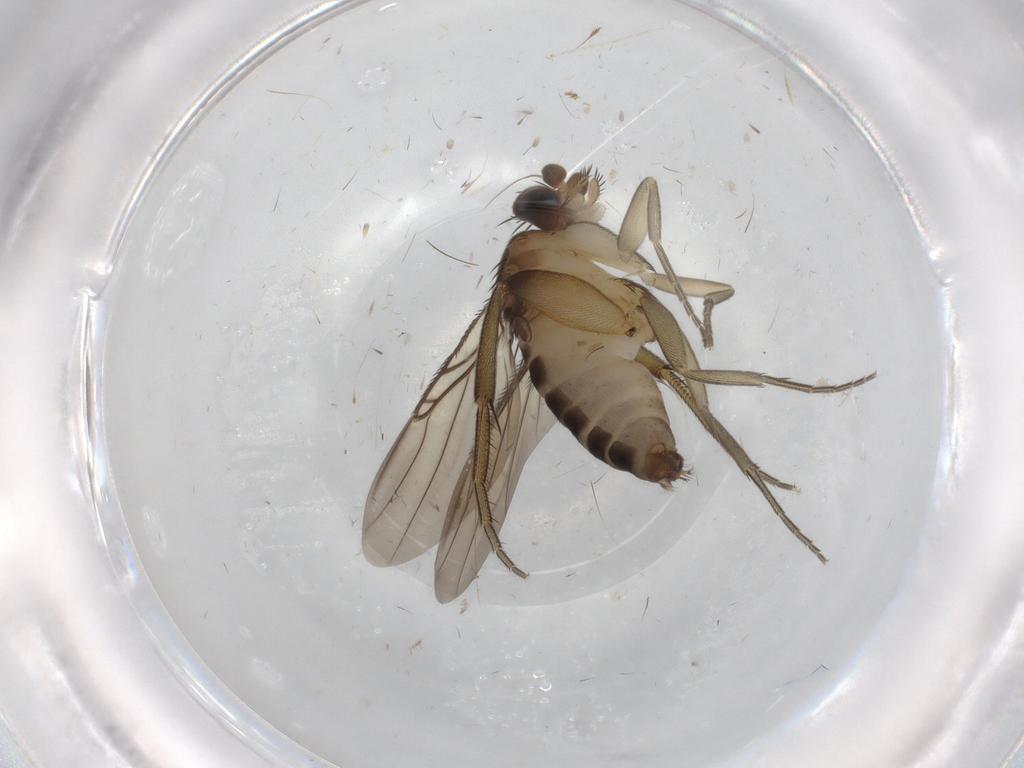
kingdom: Animalia
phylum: Arthropoda
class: Insecta
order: Diptera
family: Phoridae
